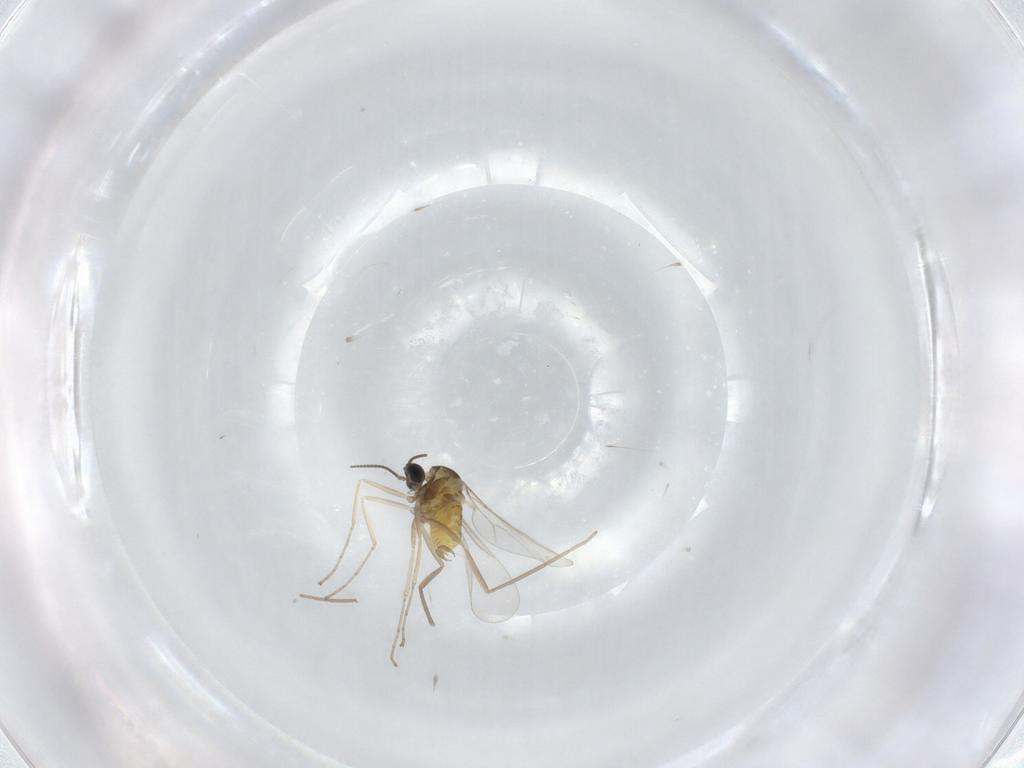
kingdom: Animalia
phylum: Arthropoda
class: Insecta
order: Diptera
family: Cecidomyiidae
